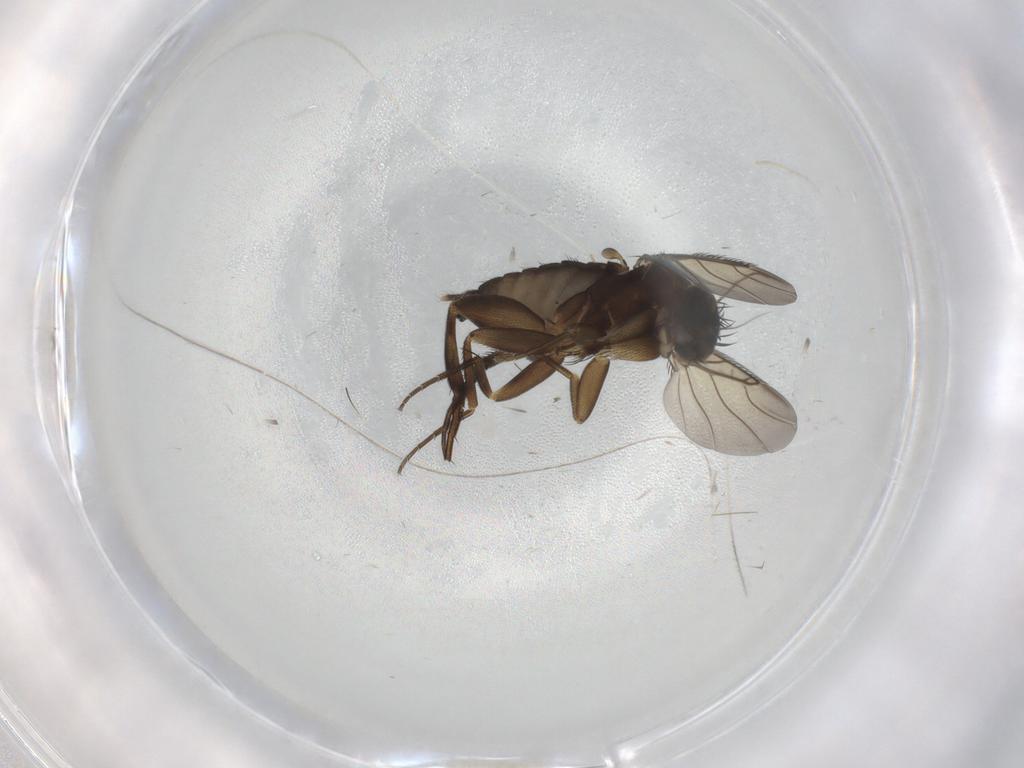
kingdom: Animalia
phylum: Arthropoda
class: Insecta
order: Diptera
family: Phoridae
